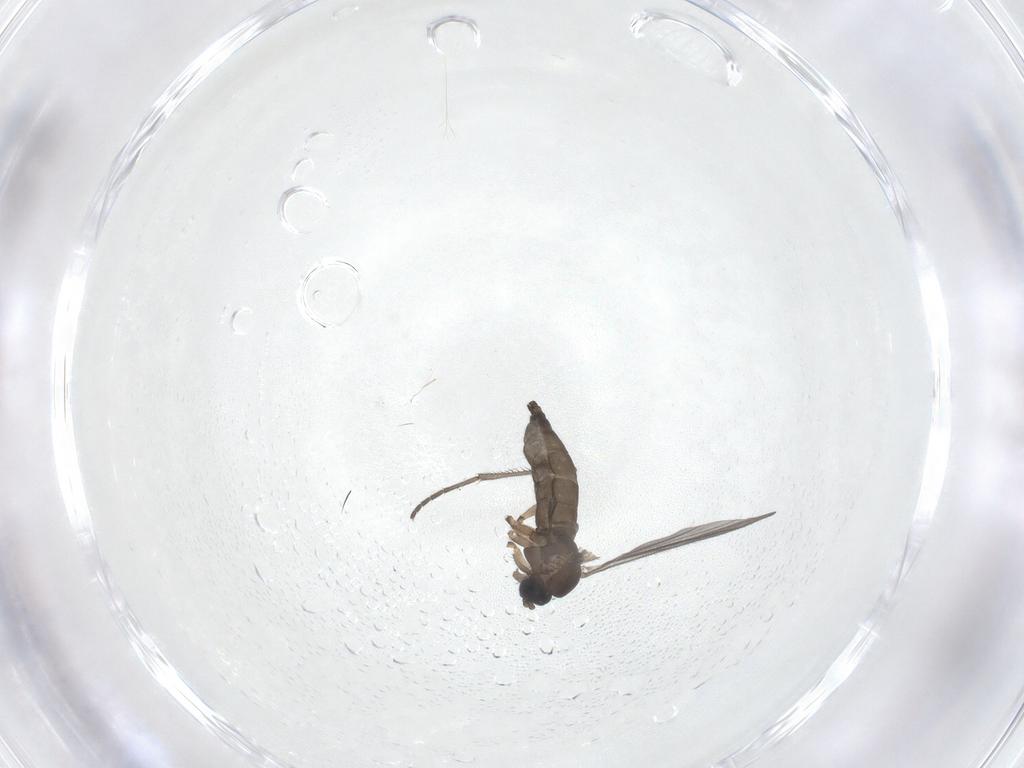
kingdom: Animalia
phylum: Arthropoda
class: Insecta
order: Diptera
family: Sciaridae
